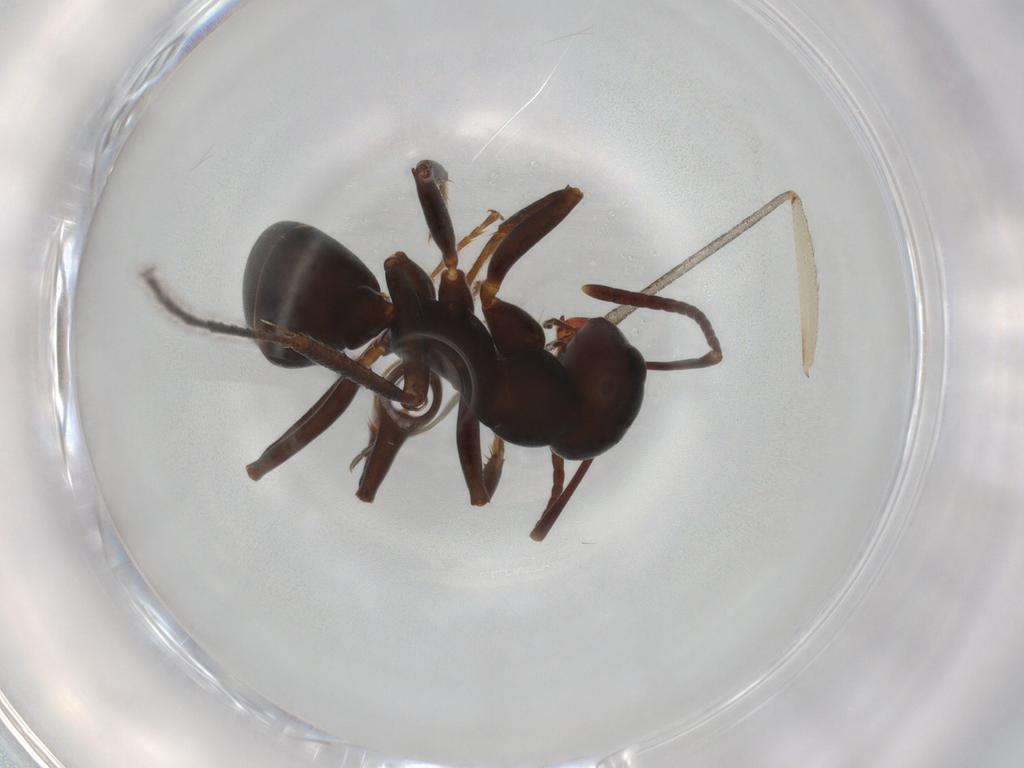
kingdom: Animalia
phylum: Arthropoda
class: Insecta
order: Hymenoptera
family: Formicidae
